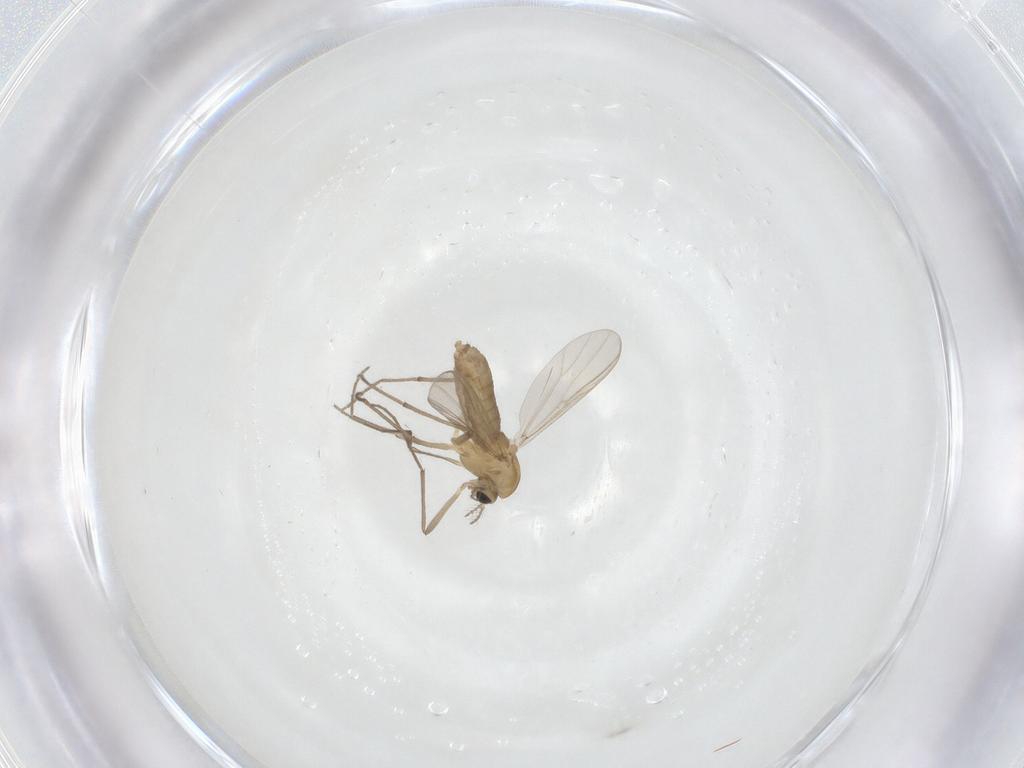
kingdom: Animalia
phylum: Arthropoda
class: Insecta
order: Diptera
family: Chironomidae
